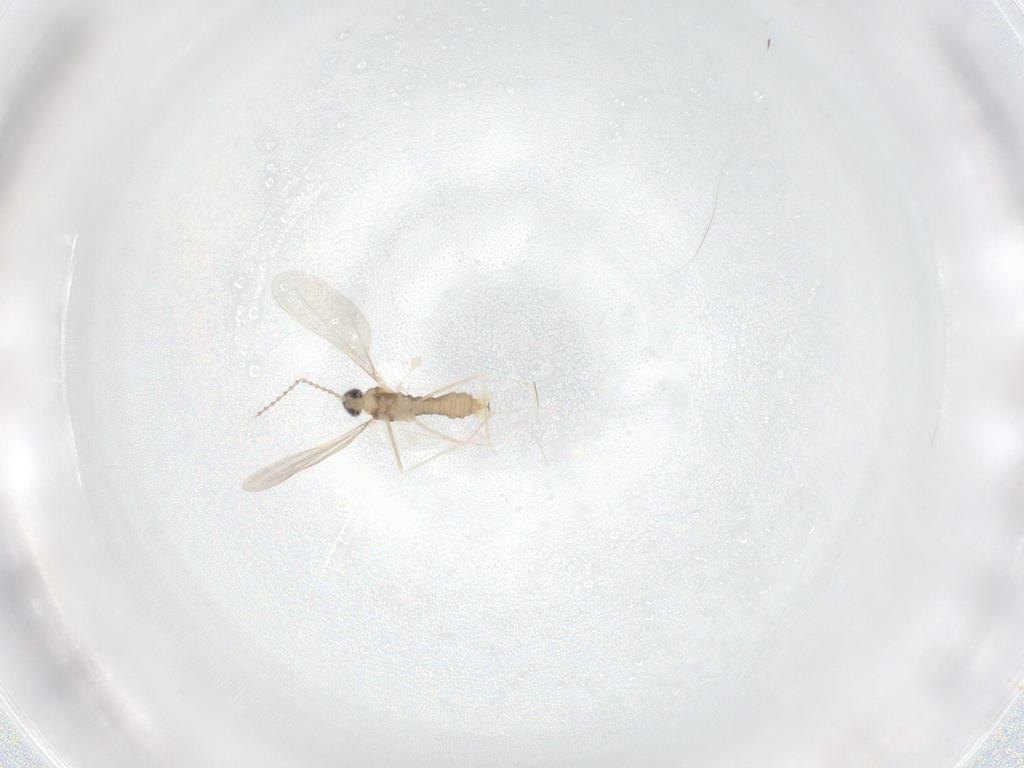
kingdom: Animalia
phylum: Arthropoda
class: Insecta
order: Diptera
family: Cecidomyiidae
